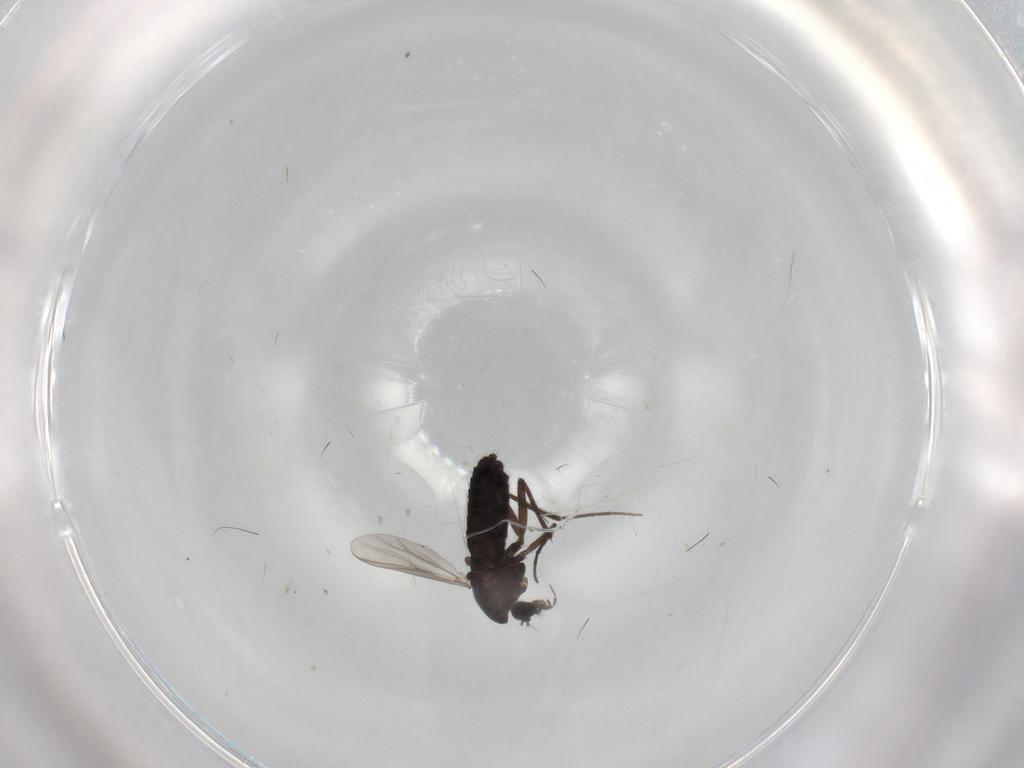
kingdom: Animalia
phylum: Arthropoda
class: Insecta
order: Diptera
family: Chironomidae
